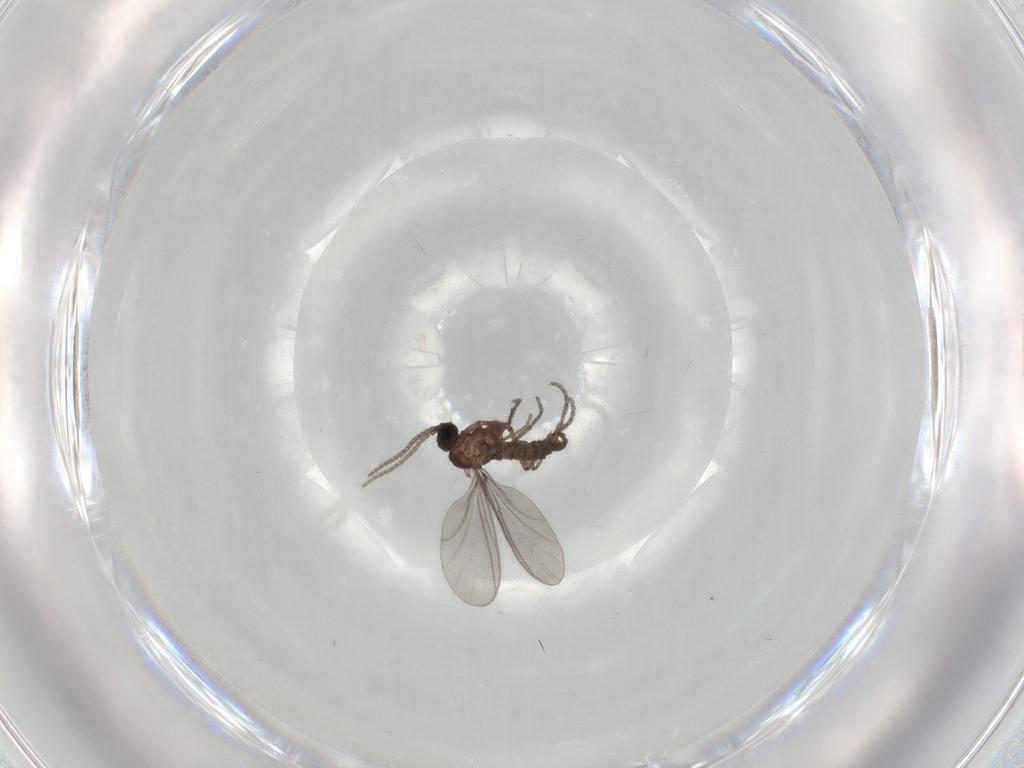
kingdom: Animalia
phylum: Arthropoda
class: Insecta
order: Diptera
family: Sciaridae
